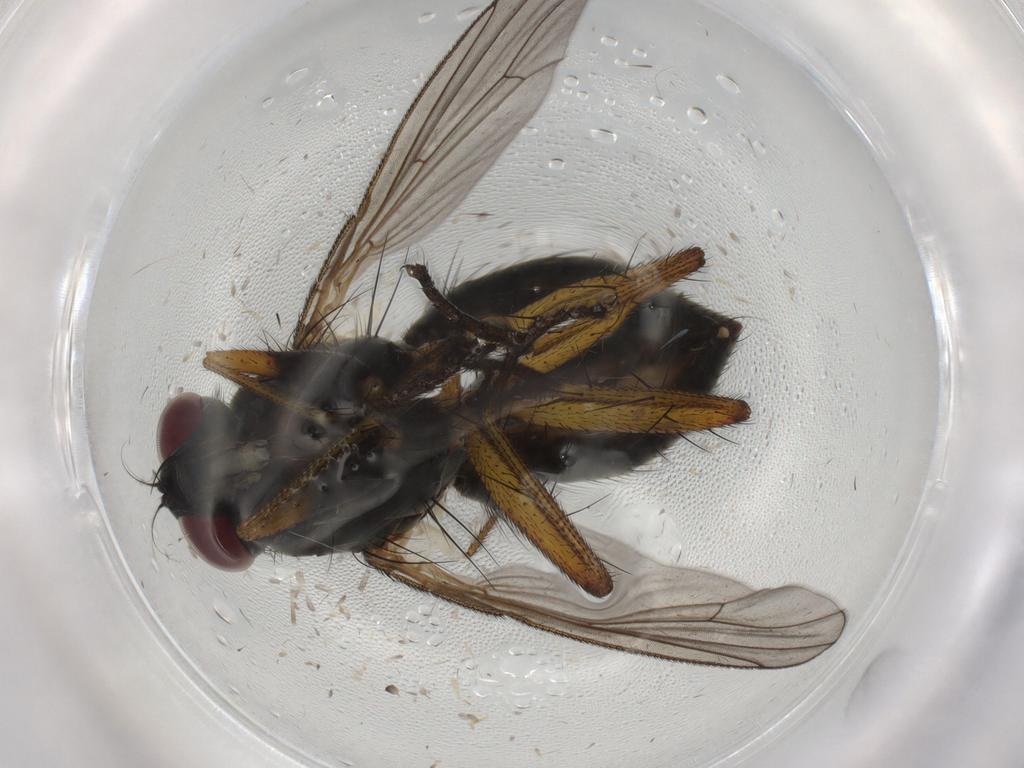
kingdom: Animalia
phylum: Arthropoda
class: Insecta
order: Diptera
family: Muscidae
